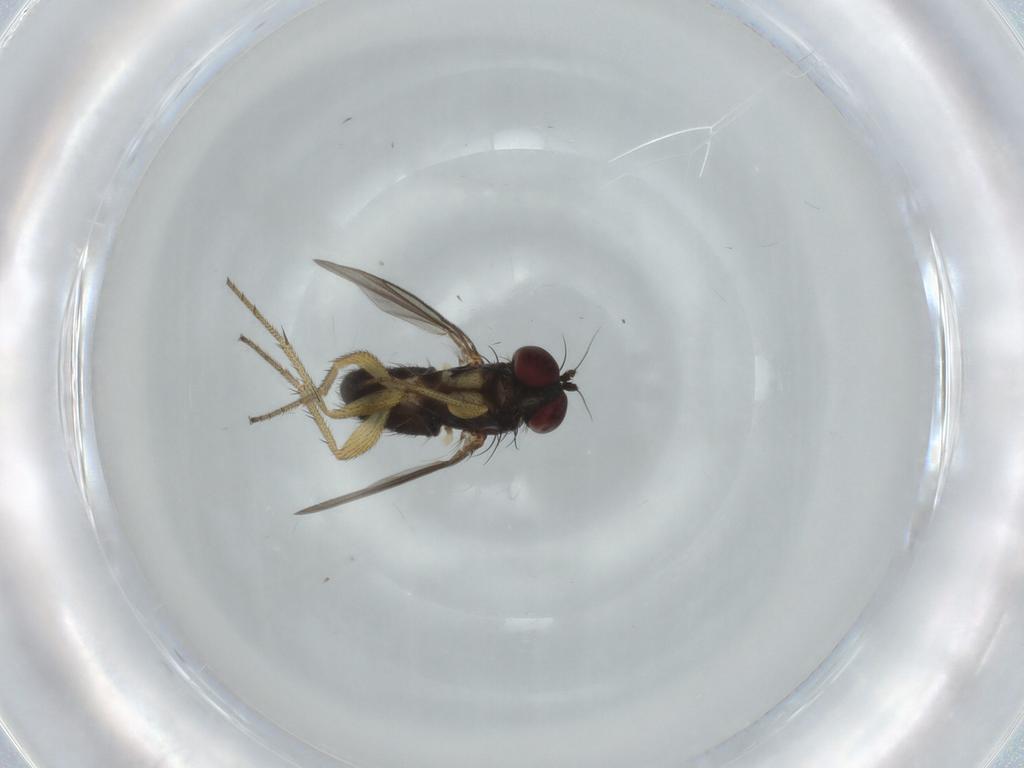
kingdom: Animalia
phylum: Arthropoda
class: Insecta
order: Diptera
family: Dolichopodidae
